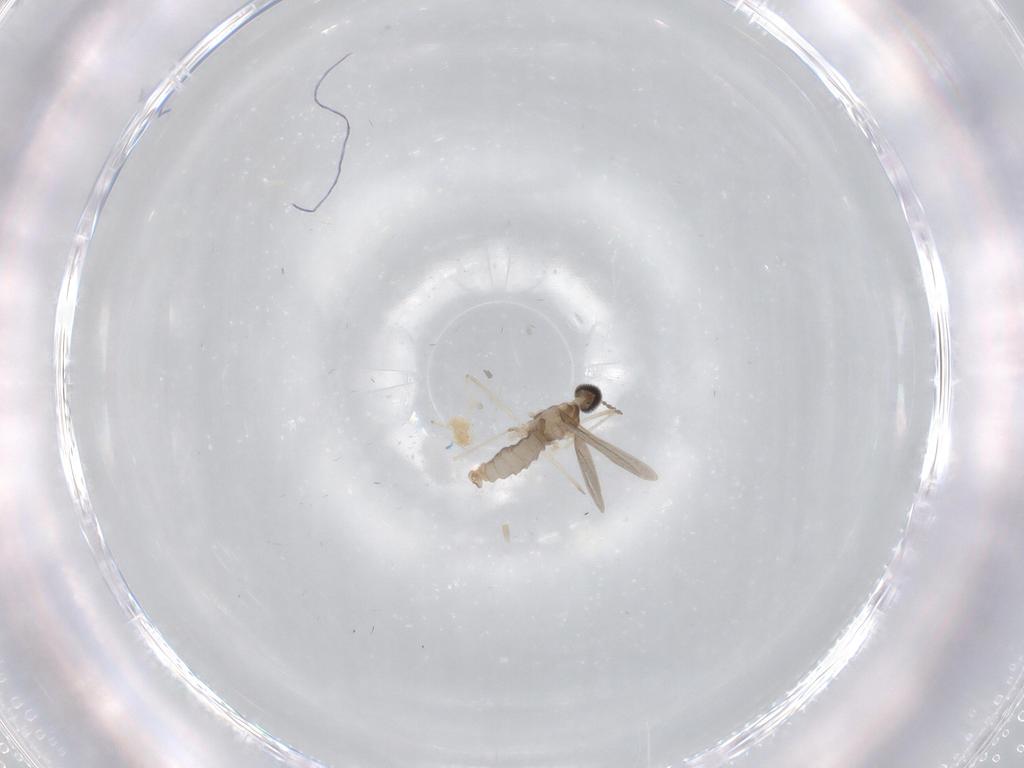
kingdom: Animalia
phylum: Arthropoda
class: Insecta
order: Diptera
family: Cecidomyiidae
